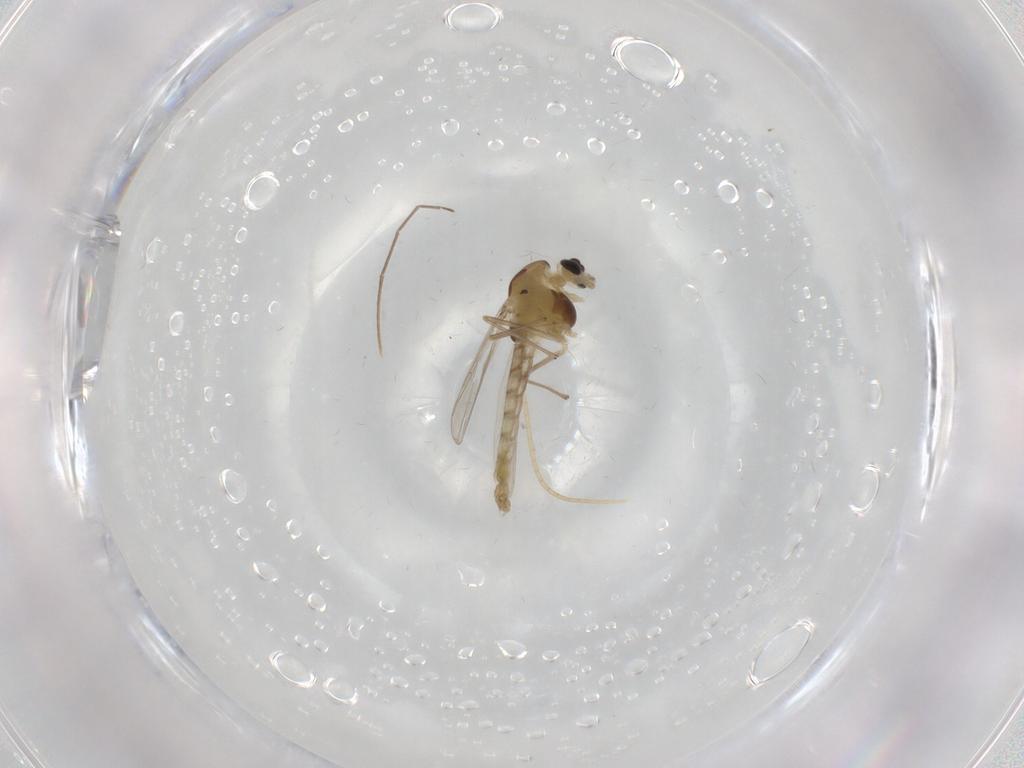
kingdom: Animalia
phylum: Arthropoda
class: Insecta
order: Diptera
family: Chironomidae
